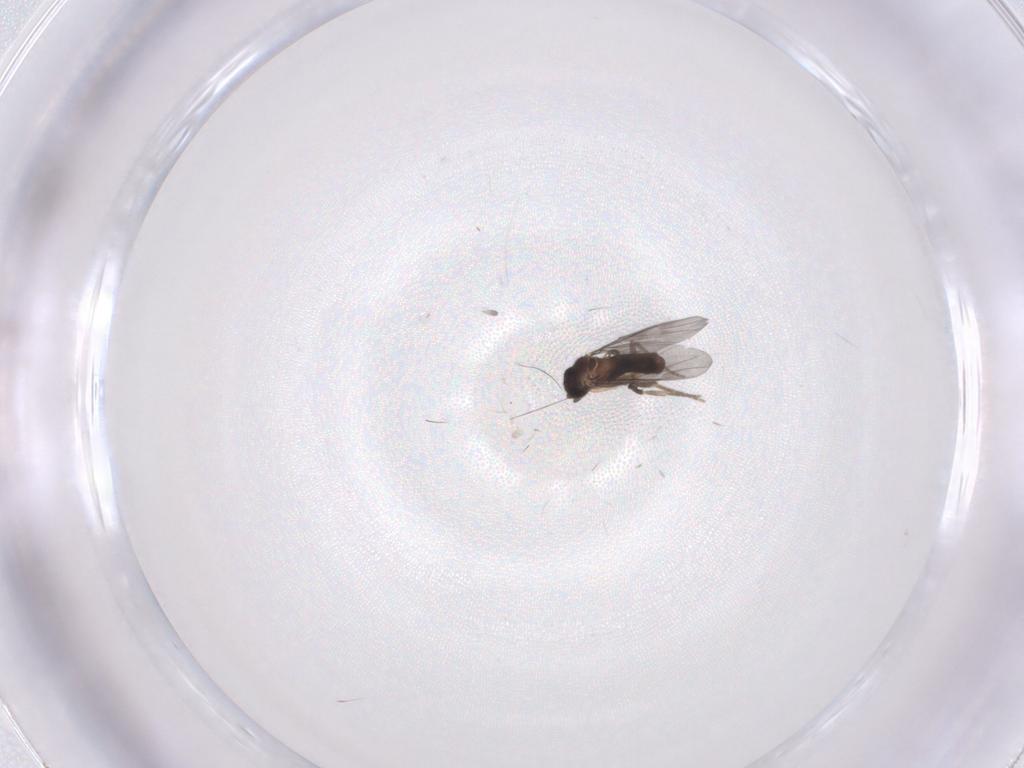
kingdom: Animalia
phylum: Arthropoda
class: Insecta
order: Diptera
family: Cecidomyiidae
